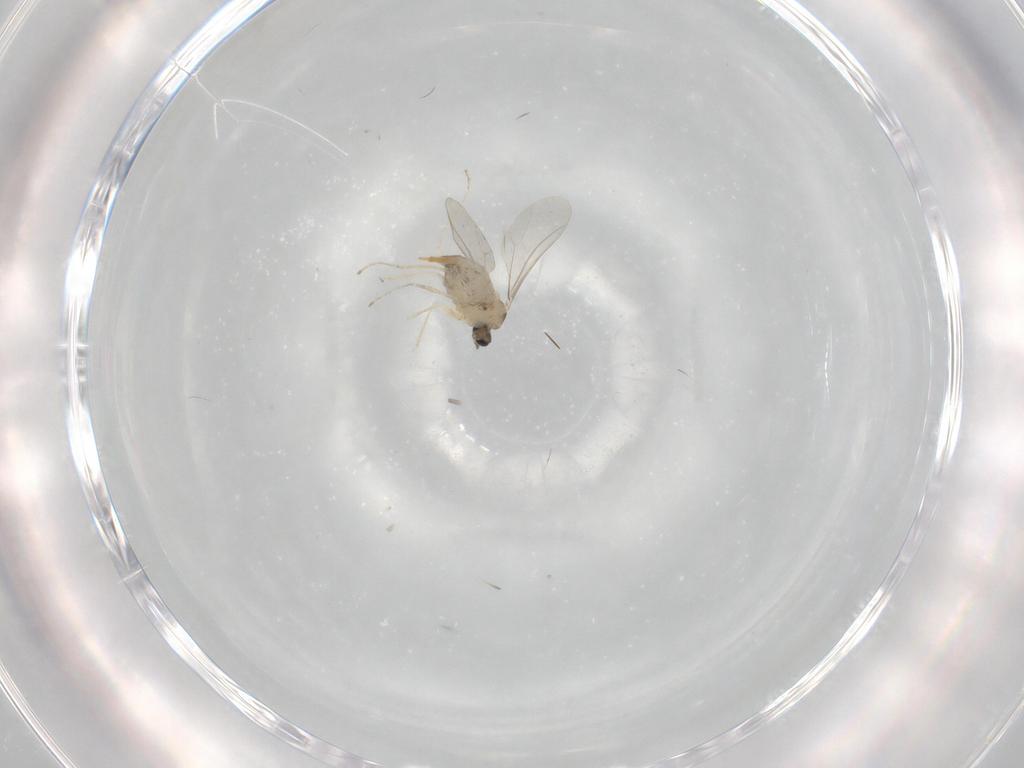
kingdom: Animalia
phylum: Arthropoda
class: Insecta
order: Diptera
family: Cecidomyiidae
